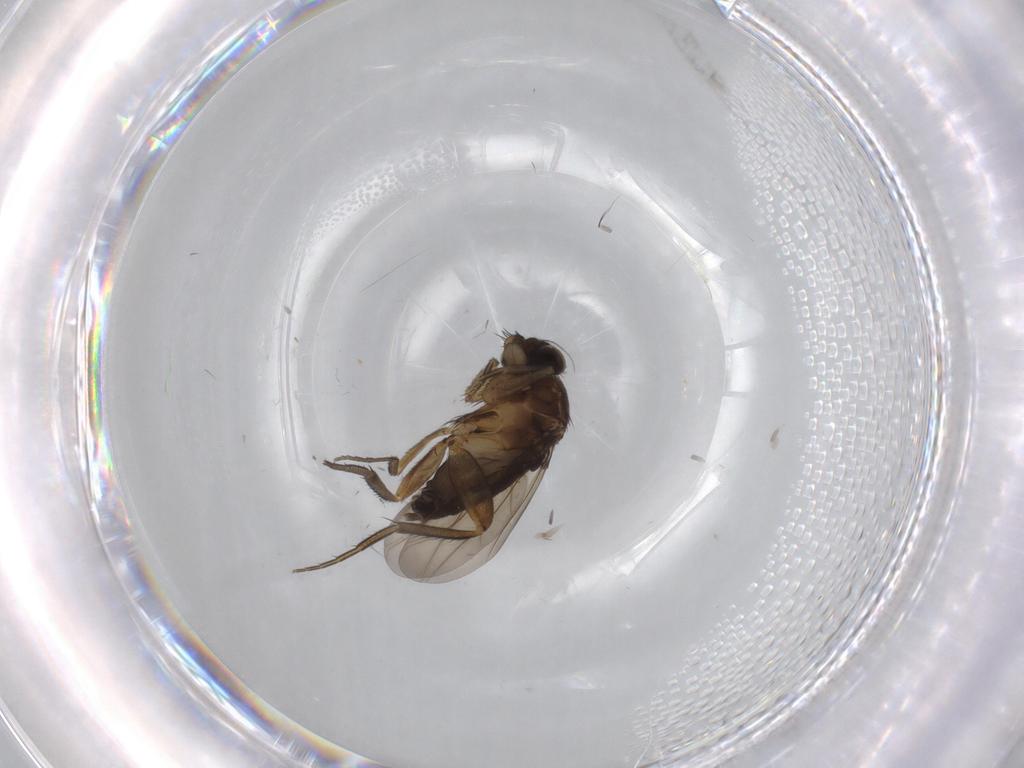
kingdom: Animalia
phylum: Arthropoda
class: Insecta
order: Diptera
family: Phoridae
